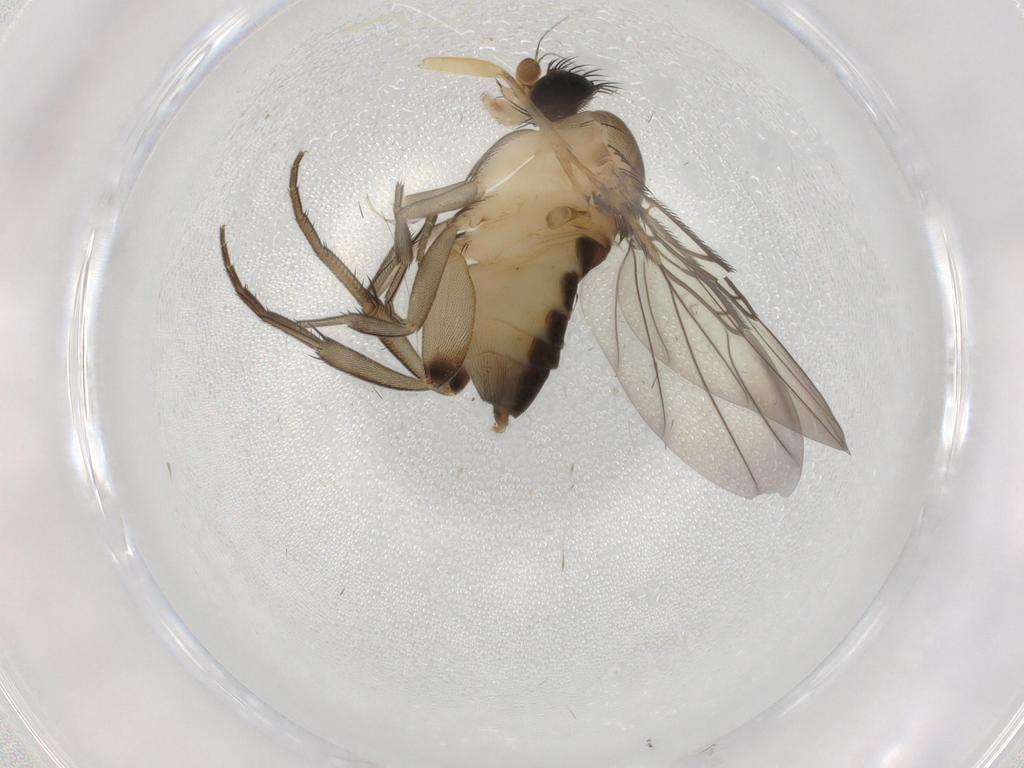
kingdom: Animalia
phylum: Arthropoda
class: Insecta
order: Diptera
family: Phoridae
